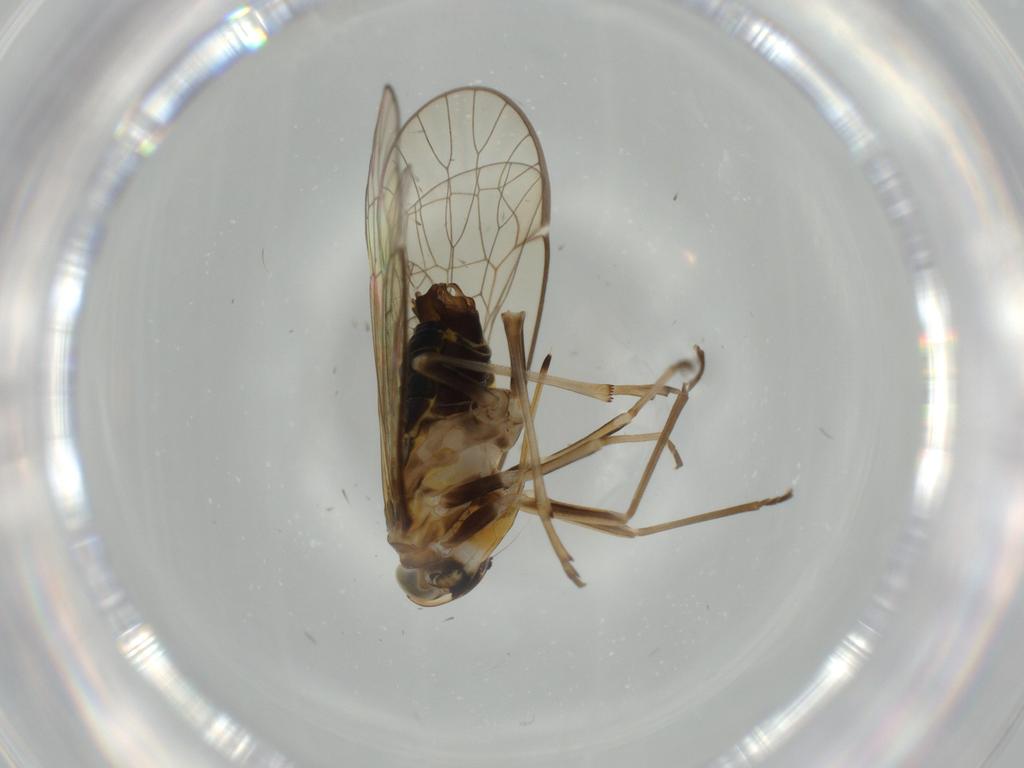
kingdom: Animalia
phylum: Arthropoda
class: Insecta
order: Hemiptera
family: Kinnaridae
